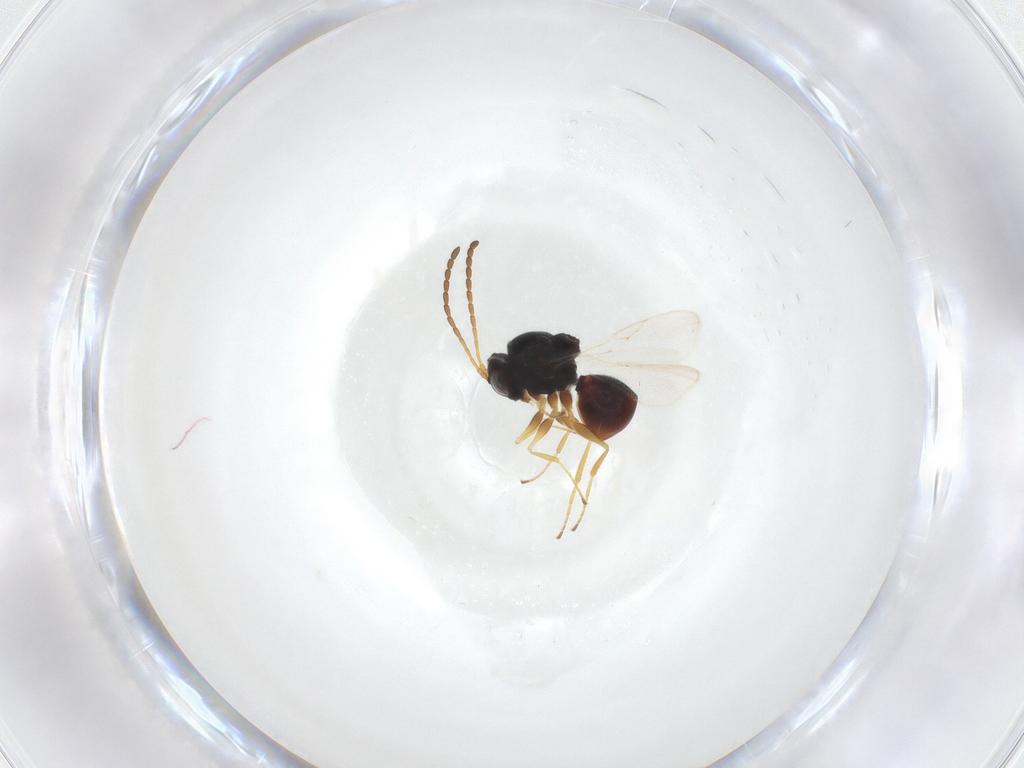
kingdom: Animalia
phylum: Arthropoda
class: Insecta
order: Hymenoptera
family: Figitidae
